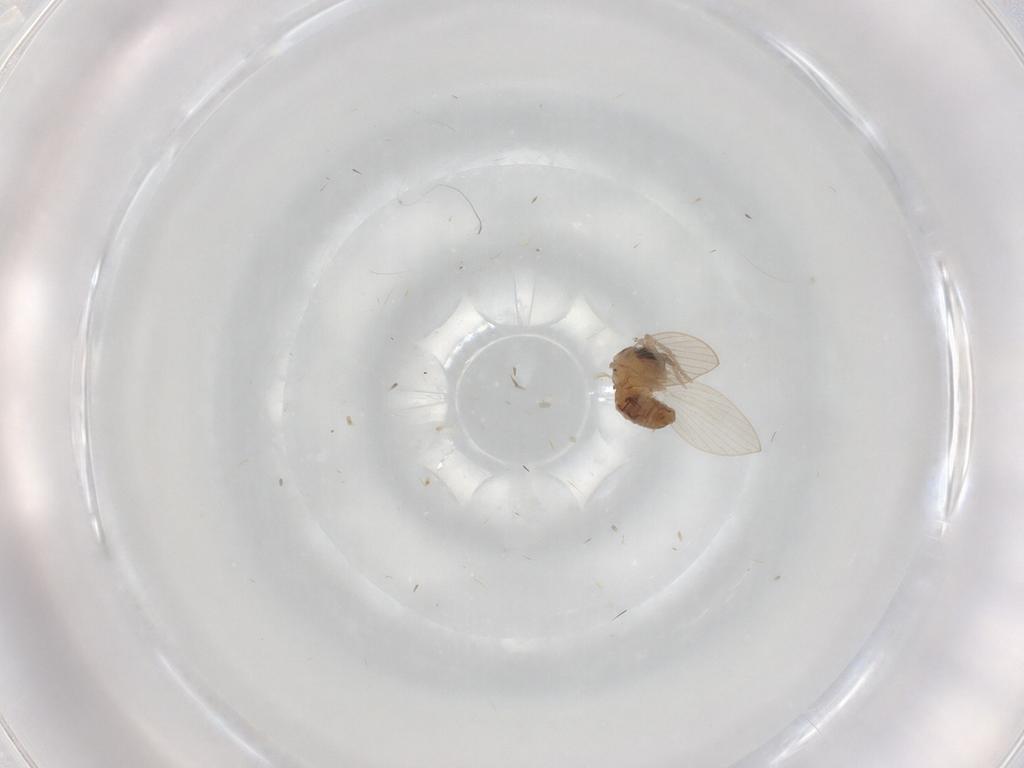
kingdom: Animalia
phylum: Arthropoda
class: Insecta
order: Diptera
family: Psychodidae
